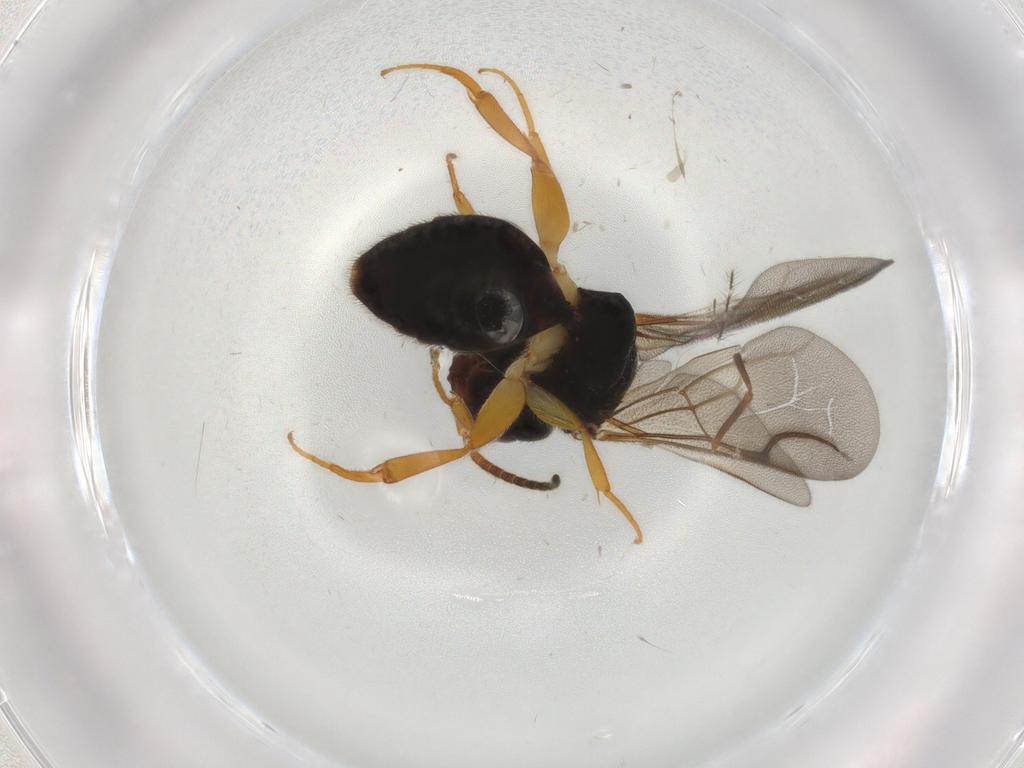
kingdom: Animalia
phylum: Arthropoda
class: Insecta
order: Hymenoptera
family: Formicidae
